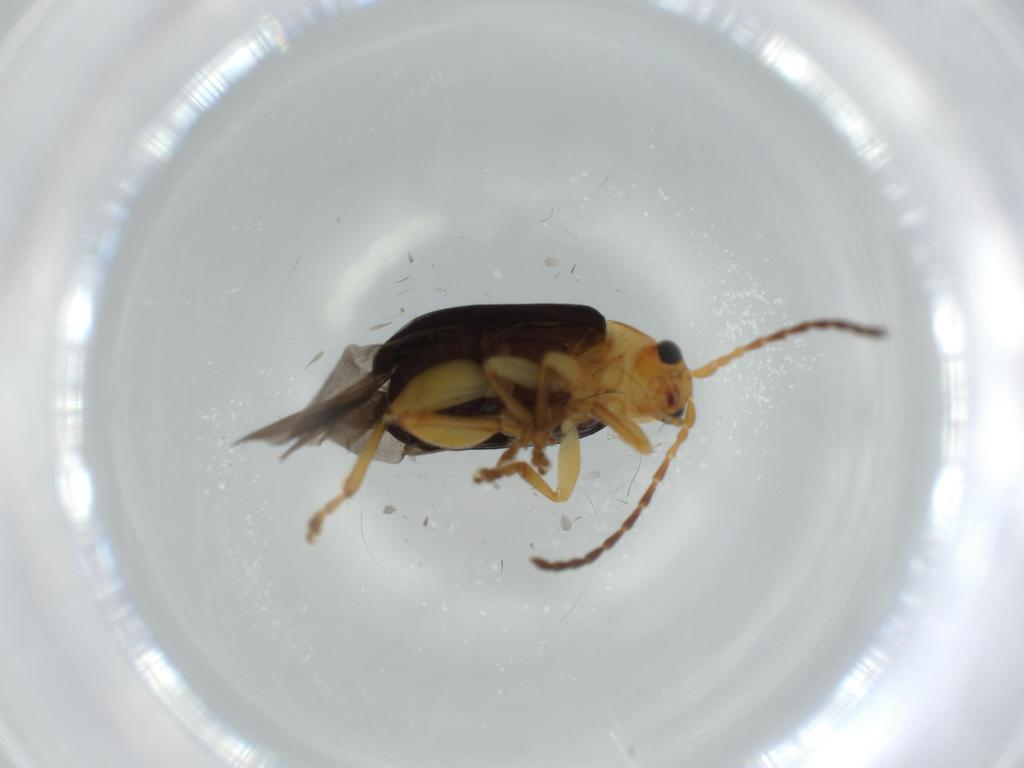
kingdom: Animalia
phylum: Arthropoda
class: Insecta
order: Coleoptera
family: Chrysomelidae
